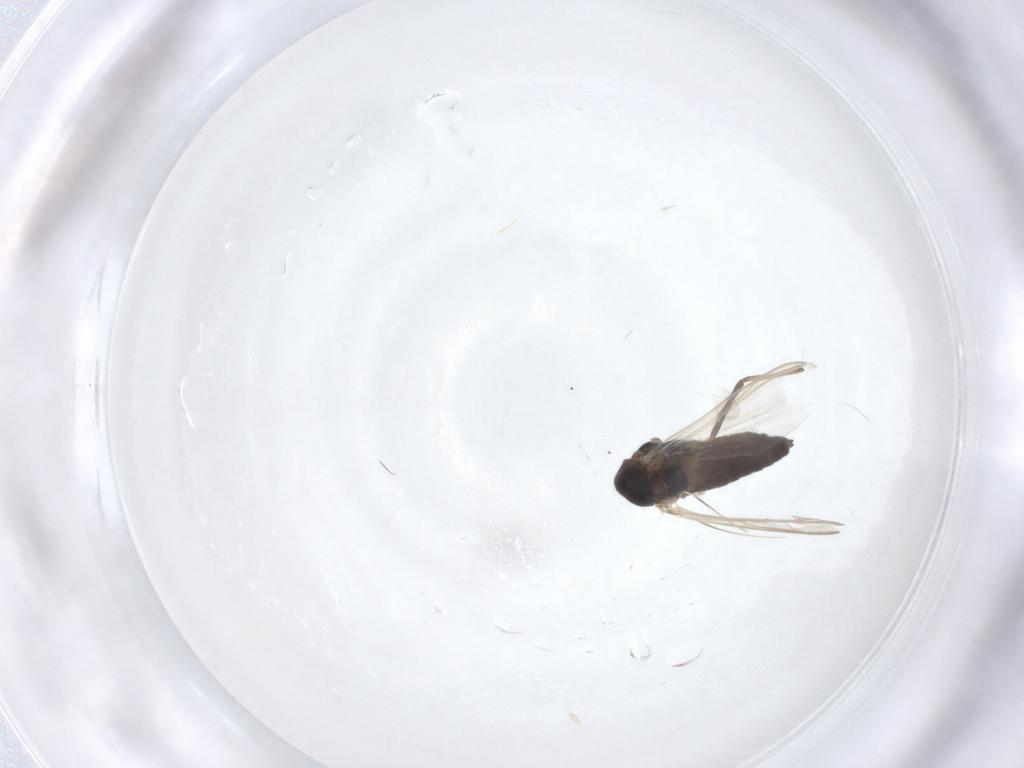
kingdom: Animalia
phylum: Arthropoda
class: Insecta
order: Diptera
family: Chironomidae
